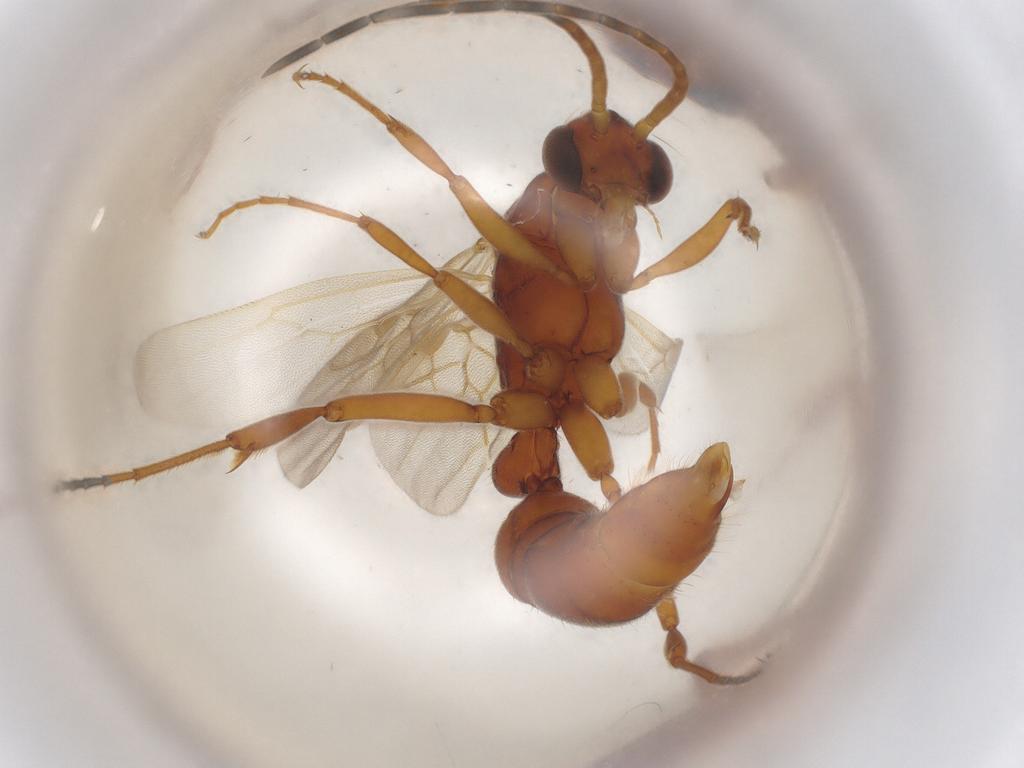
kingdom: Animalia
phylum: Arthropoda
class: Insecta
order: Hymenoptera
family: Formicidae
